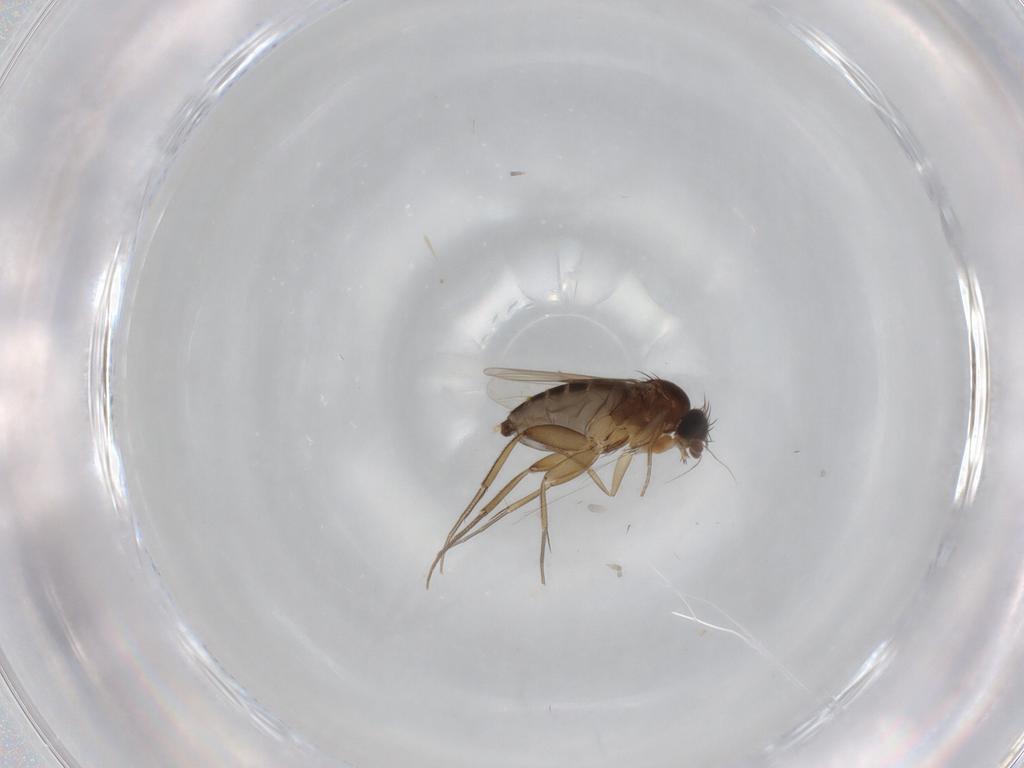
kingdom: Animalia
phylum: Arthropoda
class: Insecta
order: Diptera
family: Phoridae
